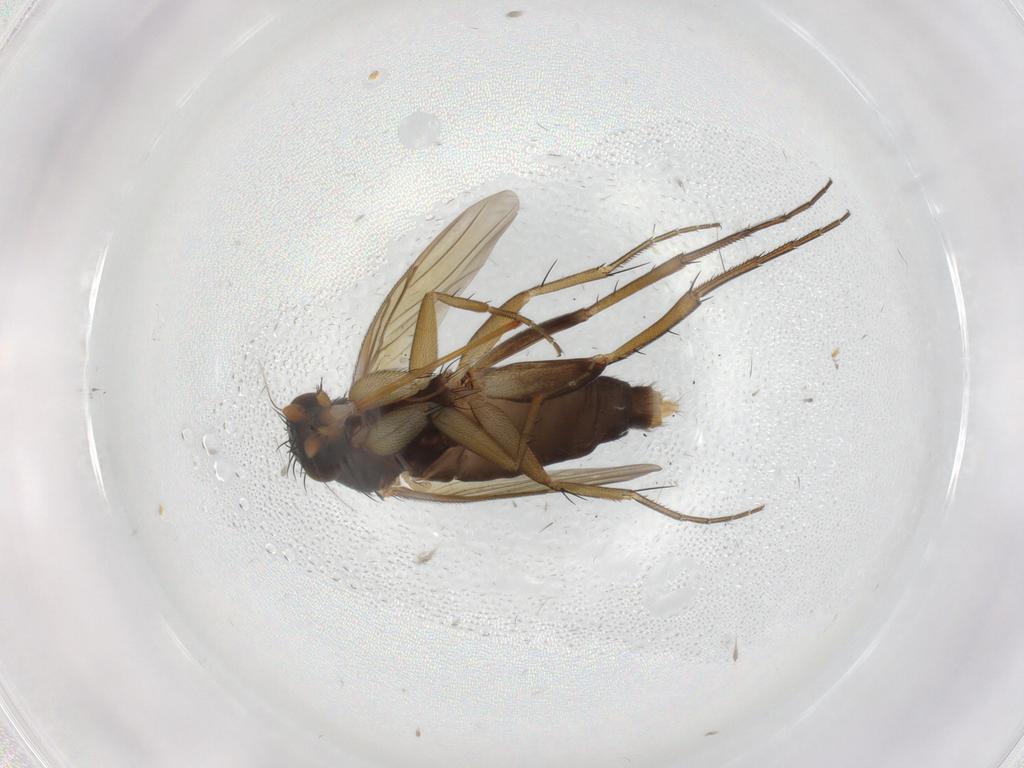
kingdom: Animalia
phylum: Arthropoda
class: Insecta
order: Diptera
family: Phoridae
